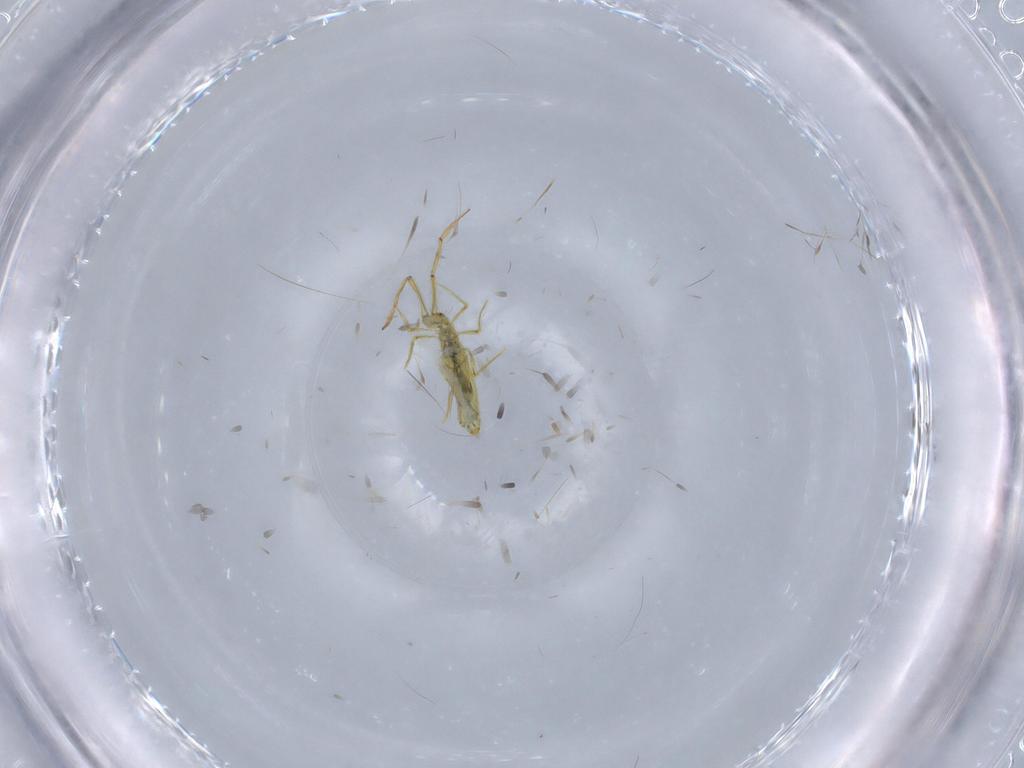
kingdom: Animalia
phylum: Arthropoda
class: Collembola
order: Entomobryomorpha
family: Paronellidae
